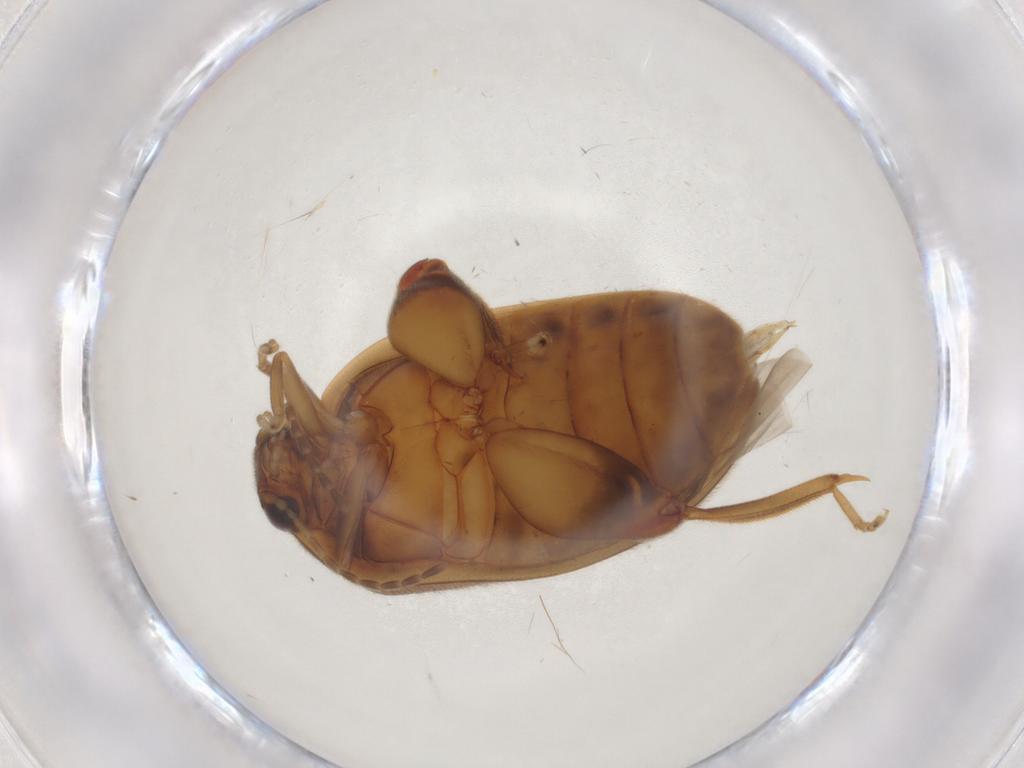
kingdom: Animalia
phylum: Arthropoda
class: Insecta
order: Coleoptera
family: Scirtidae
